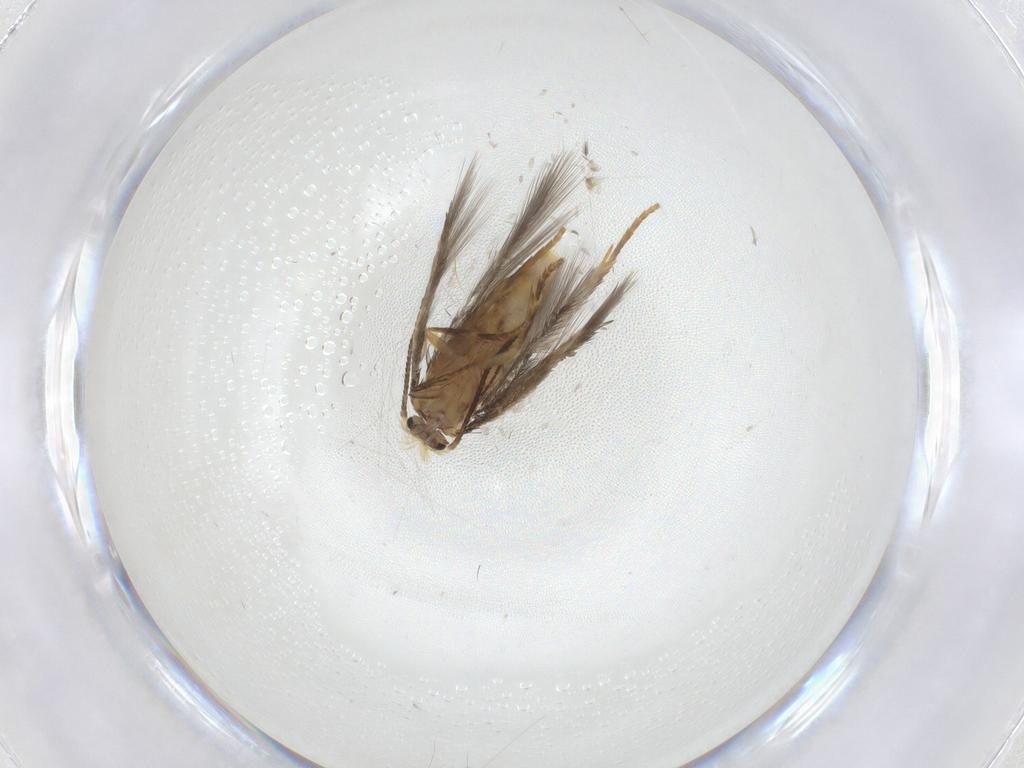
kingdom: Animalia
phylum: Arthropoda
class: Insecta
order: Lepidoptera
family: Nepticulidae
